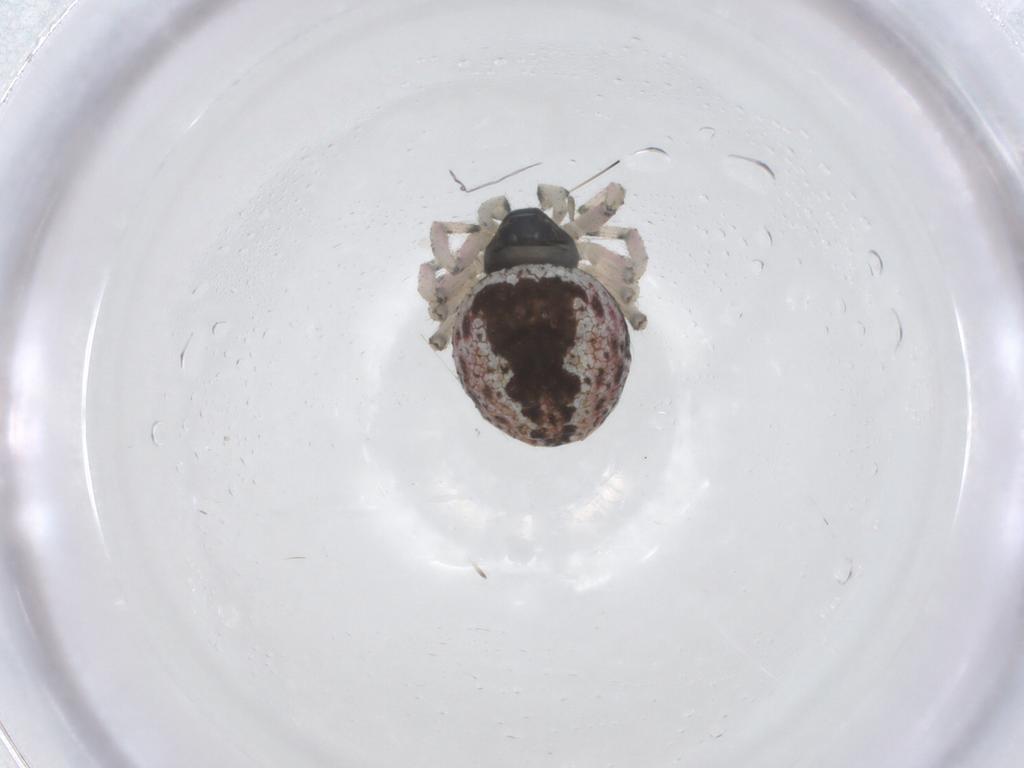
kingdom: Animalia
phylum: Arthropoda
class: Arachnida
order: Araneae
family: Theridiidae
